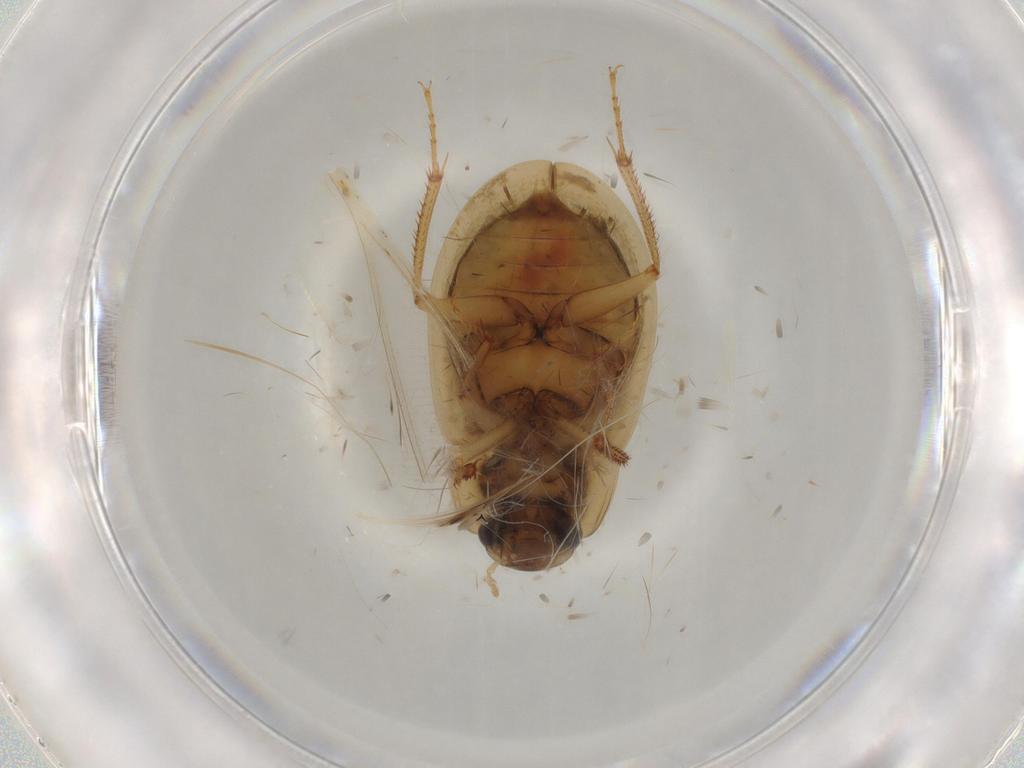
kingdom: Animalia
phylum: Arthropoda
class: Insecta
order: Coleoptera
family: Hydrophilidae
